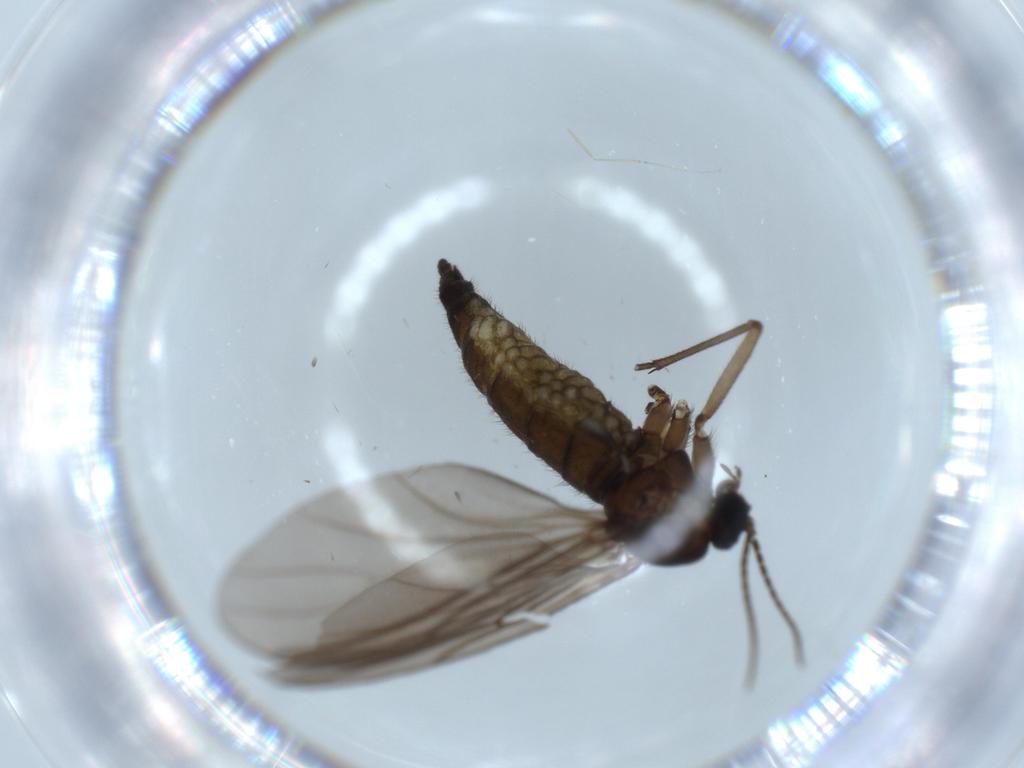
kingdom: Animalia
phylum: Arthropoda
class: Insecta
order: Diptera
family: Sciaridae
